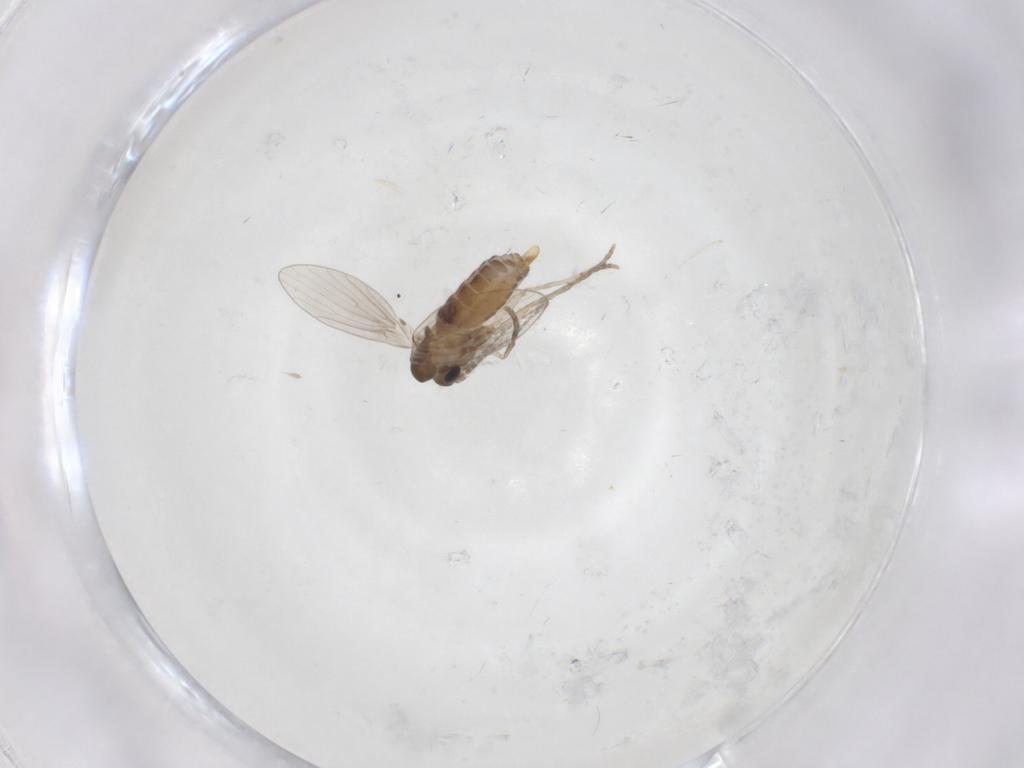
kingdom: Animalia
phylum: Arthropoda
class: Insecta
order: Diptera
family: Psychodidae
